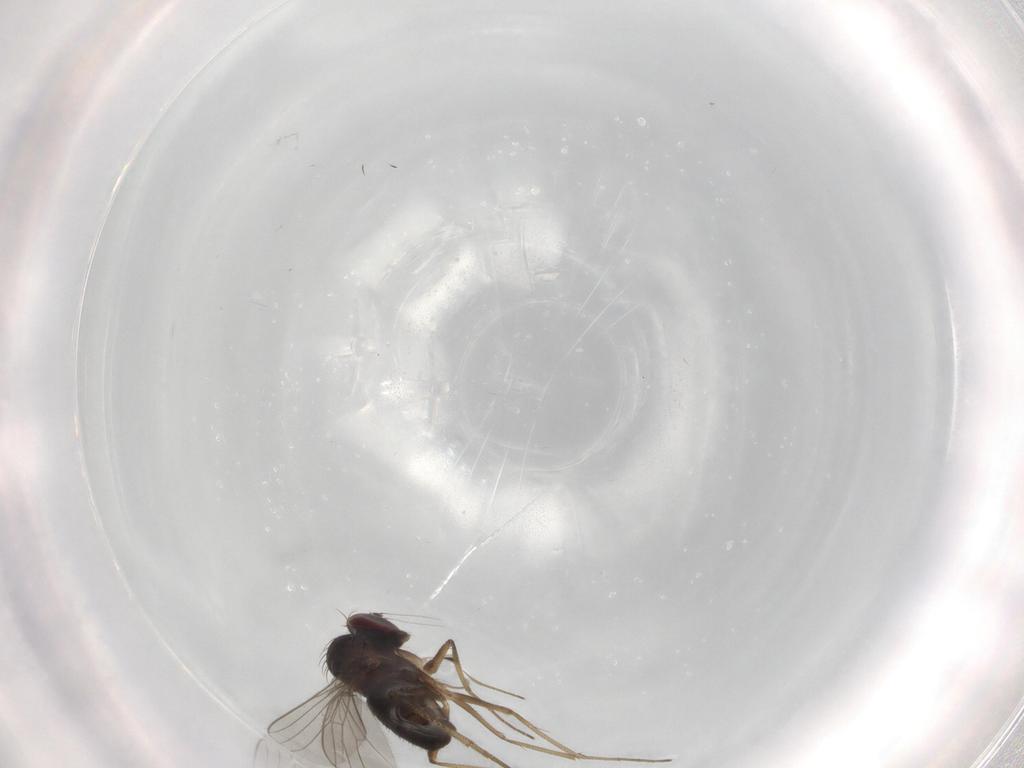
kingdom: Animalia
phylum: Arthropoda
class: Insecta
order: Diptera
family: Dolichopodidae
